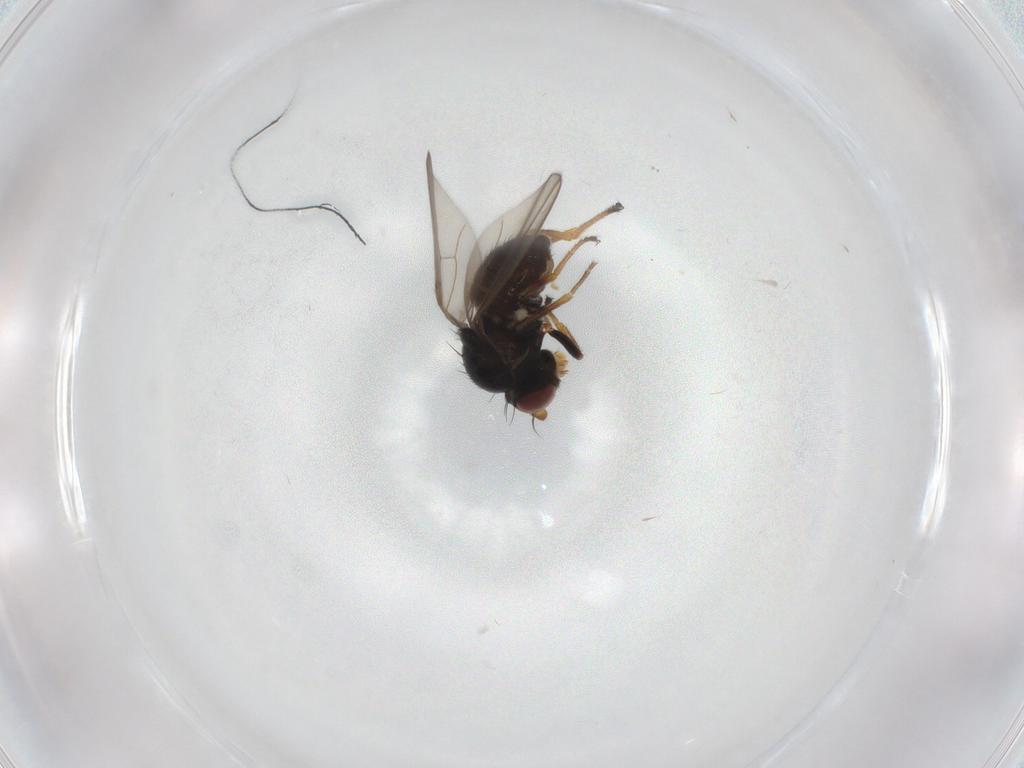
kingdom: Animalia
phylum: Arthropoda
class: Insecta
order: Diptera
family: Ephydridae
